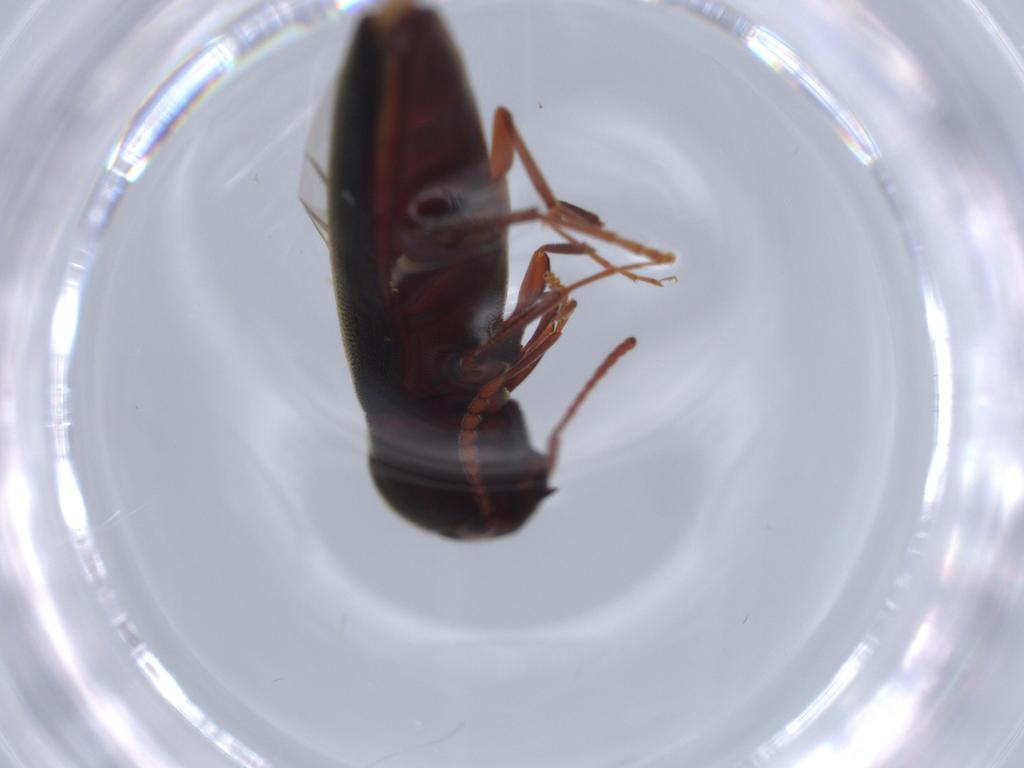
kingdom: Animalia
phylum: Arthropoda
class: Insecta
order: Coleoptera
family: Eucnemidae
